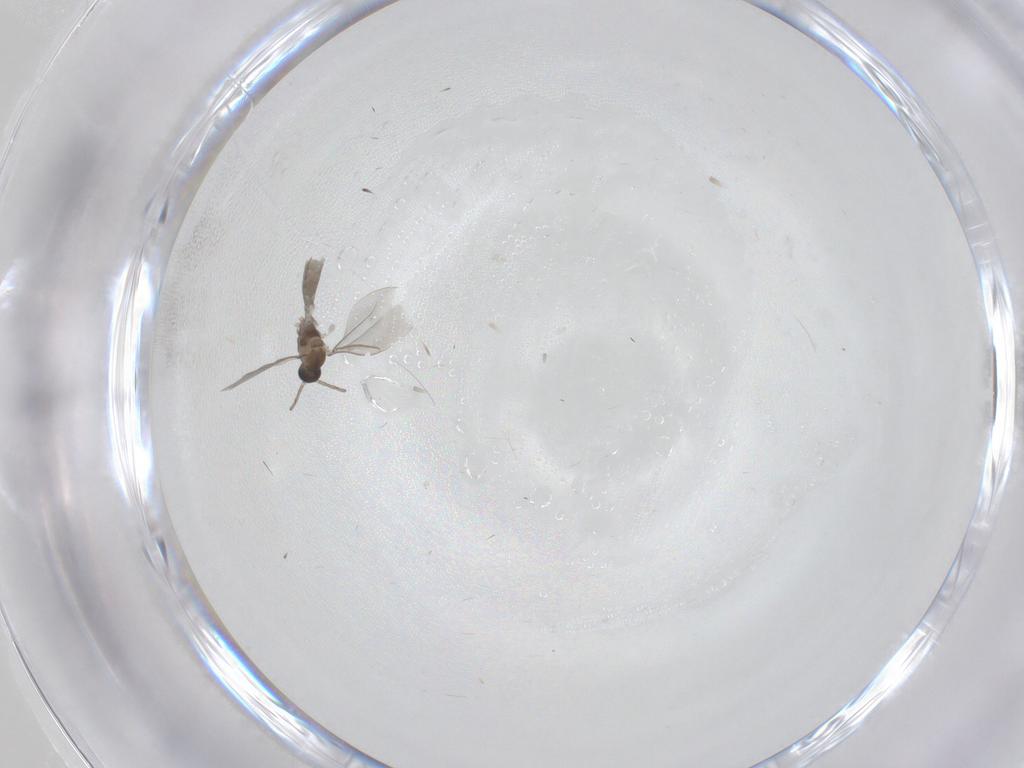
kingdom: Animalia
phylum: Arthropoda
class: Insecta
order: Diptera
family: Cecidomyiidae
